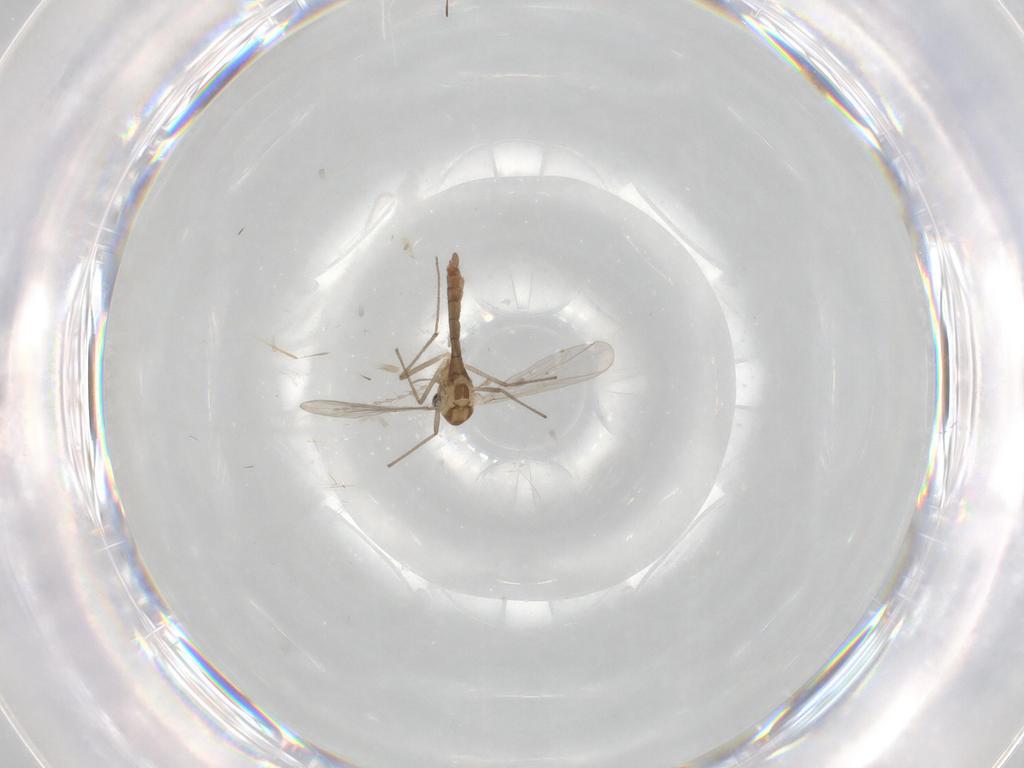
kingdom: Animalia
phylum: Arthropoda
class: Insecta
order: Diptera
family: Chironomidae
